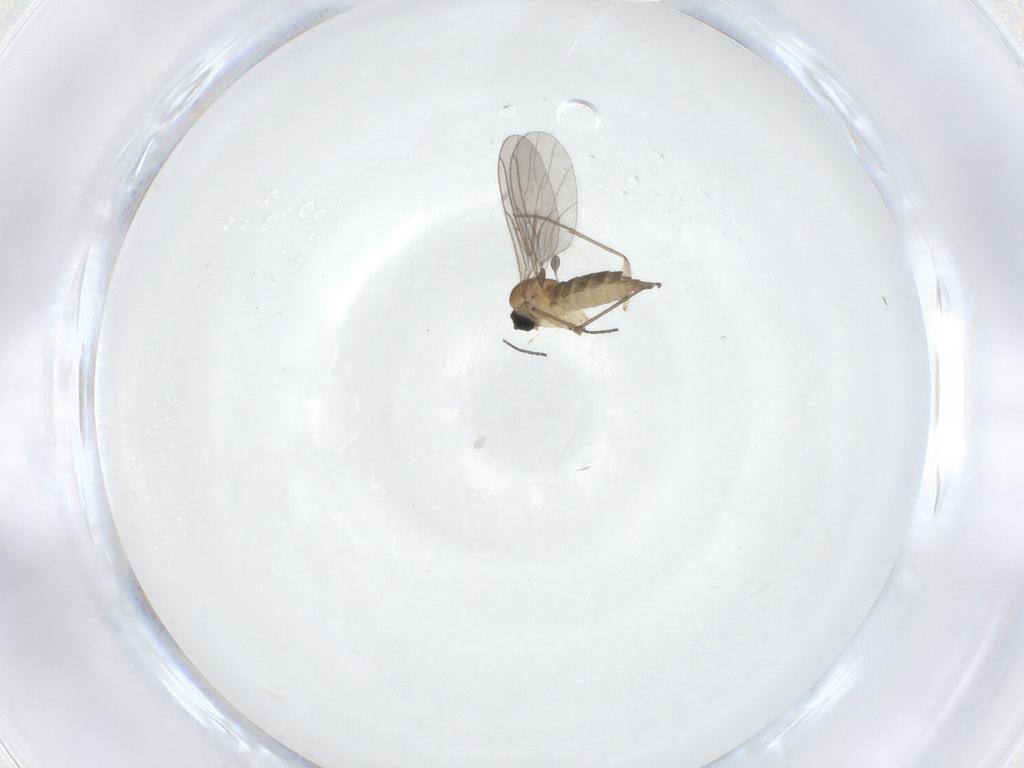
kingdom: Animalia
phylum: Arthropoda
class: Insecta
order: Diptera
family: Sciaridae
